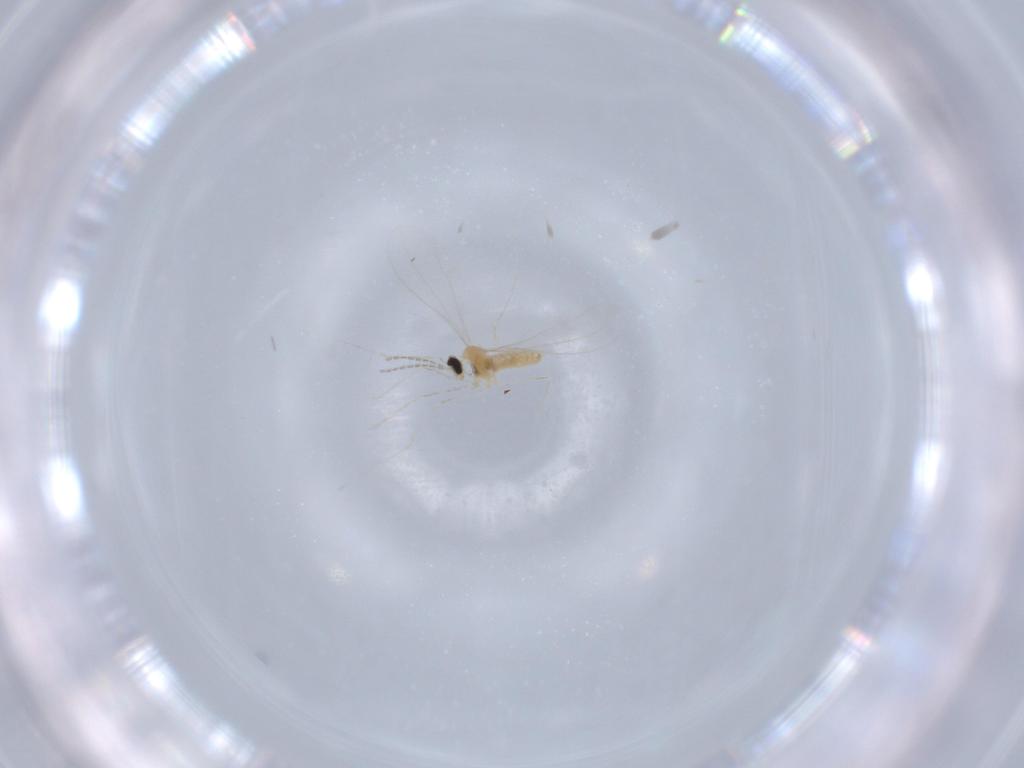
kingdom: Animalia
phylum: Arthropoda
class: Insecta
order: Diptera
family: Cecidomyiidae
